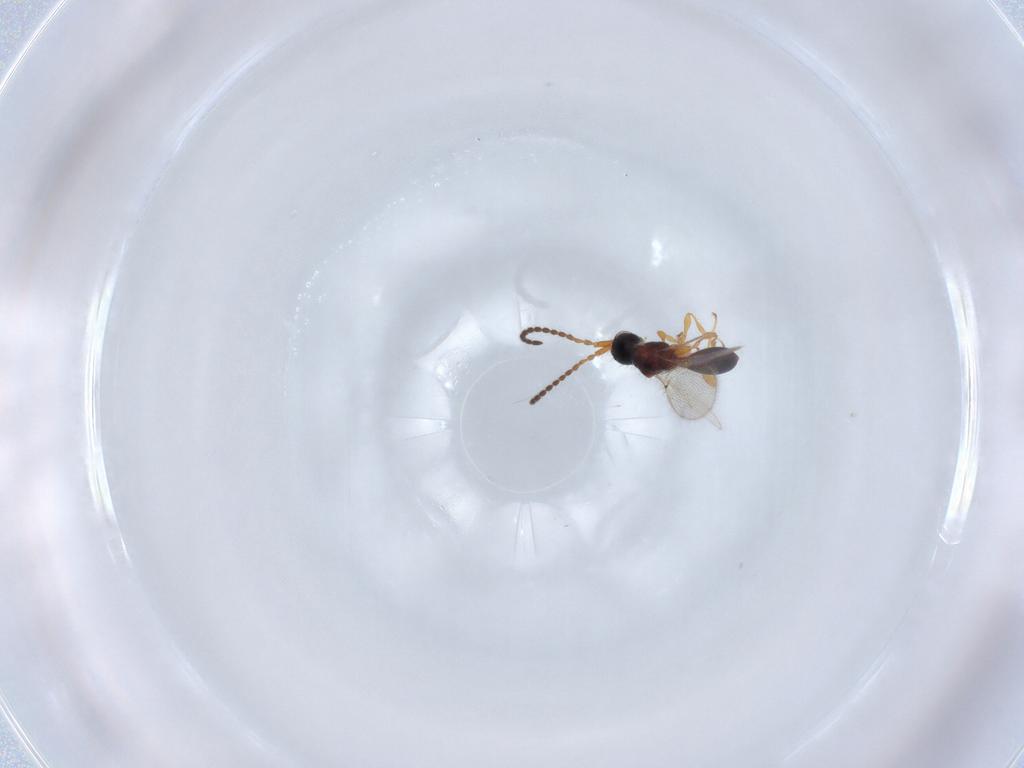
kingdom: Animalia
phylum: Arthropoda
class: Insecta
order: Hymenoptera
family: Diapriidae
